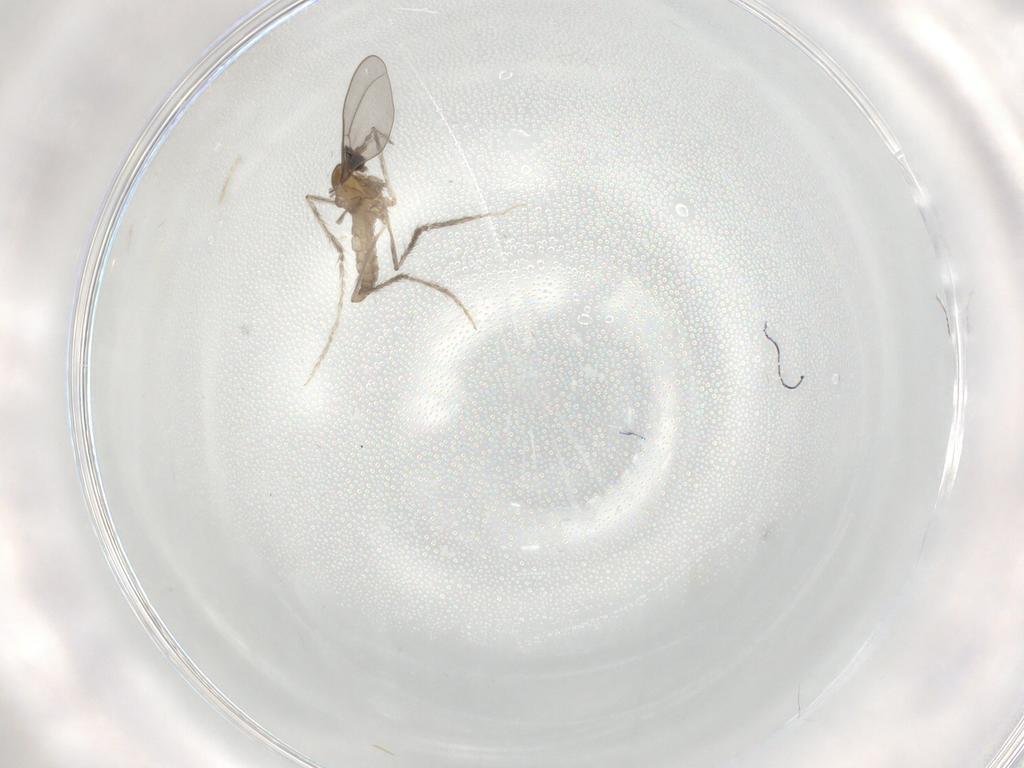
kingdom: Animalia
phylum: Arthropoda
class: Insecta
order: Diptera
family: Cecidomyiidae
